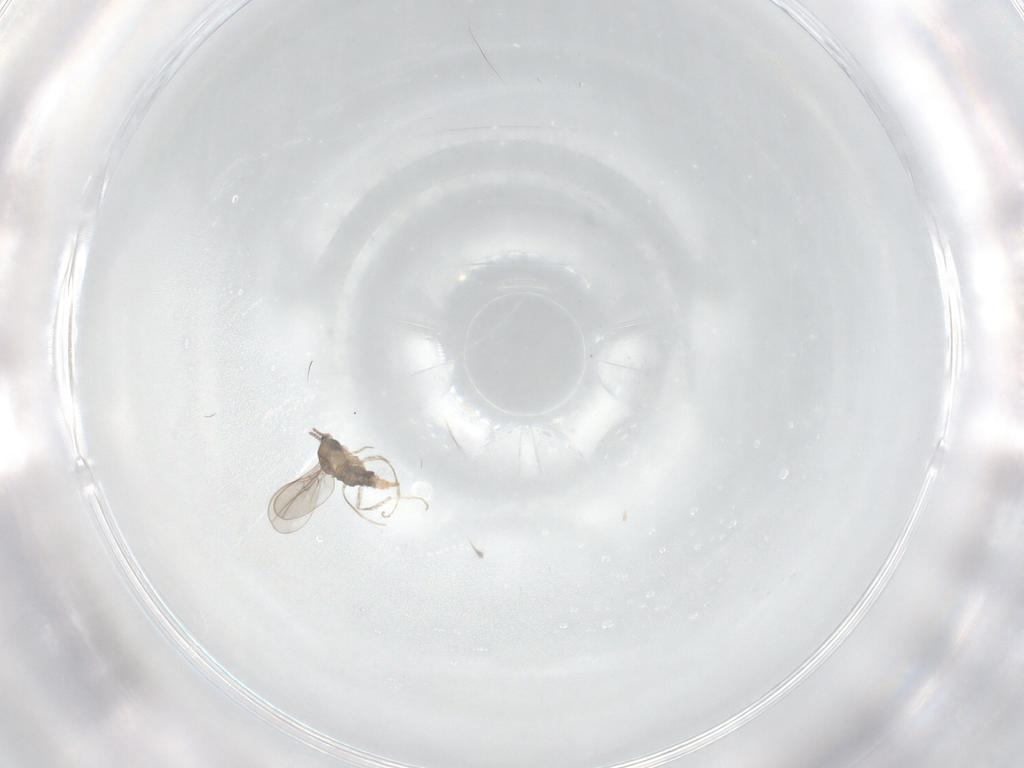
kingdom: Animalia
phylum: Arthropoda
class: Insecta
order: Diptera
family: Cecidomyiidae
